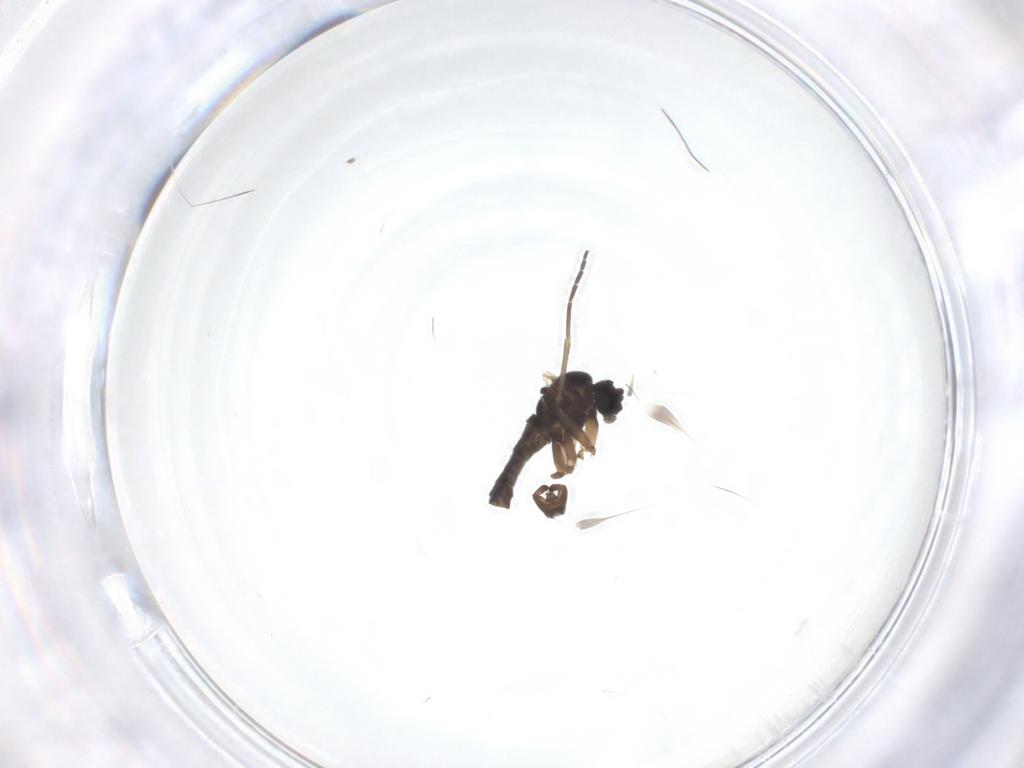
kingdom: Animalia
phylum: Arthropoda
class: Insecta
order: Diptera
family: Sciaridae
